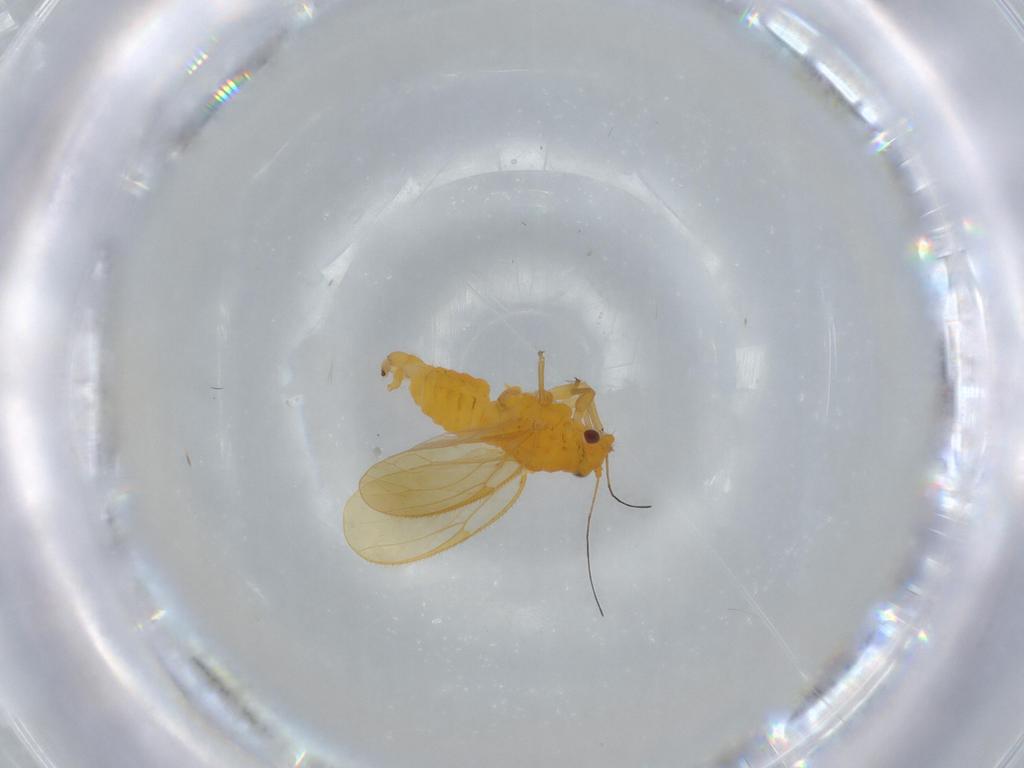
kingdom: Animalia
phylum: Arthropoda
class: Insecta
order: Hemiptera
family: Psyllidae
